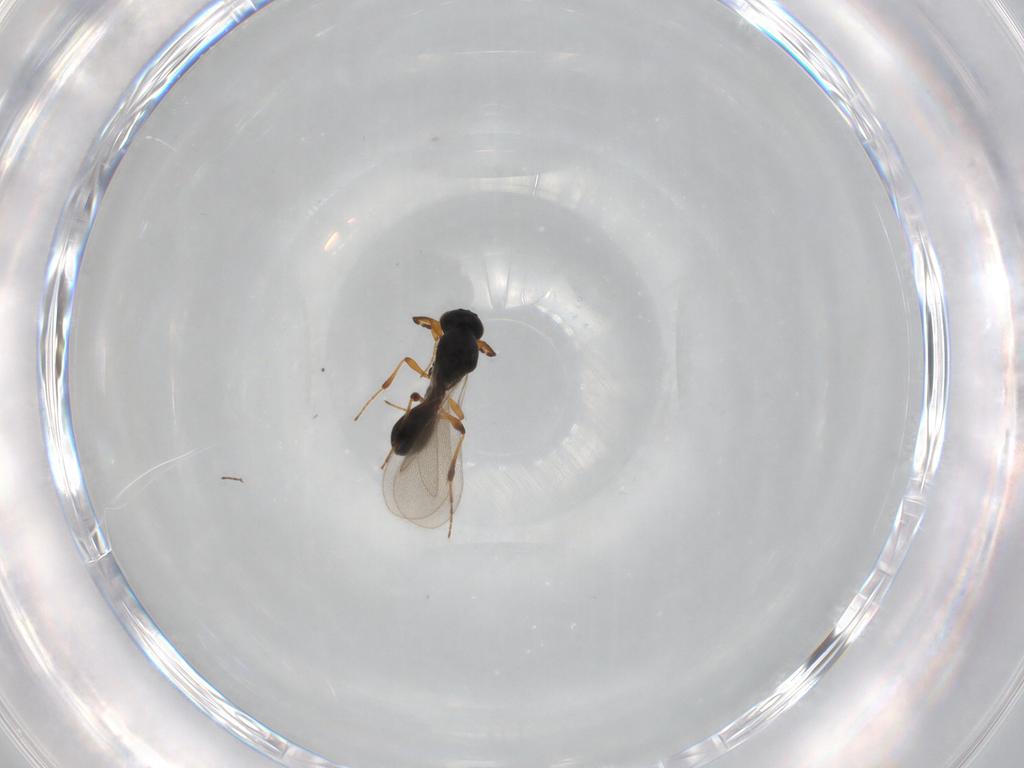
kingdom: Animalia
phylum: Arthropoda
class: Insecta
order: Hymenoptera
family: Platygastridae
